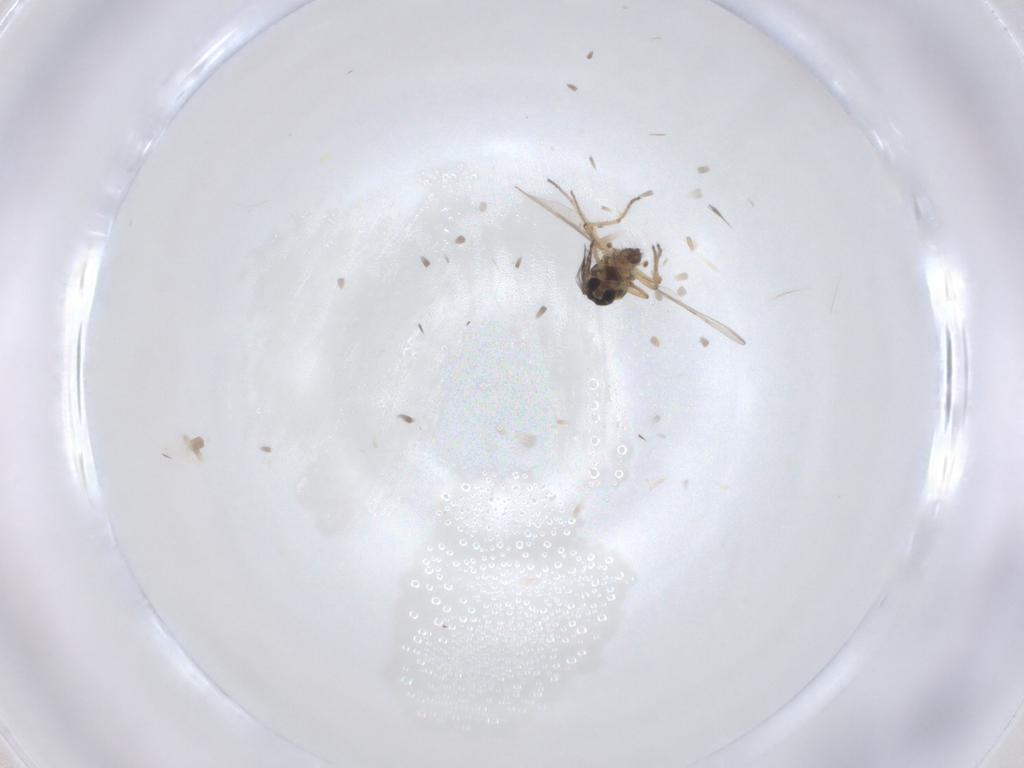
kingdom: Animalia
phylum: Arthropoda
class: Insecta
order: Diptera
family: Ceratopogonidae
